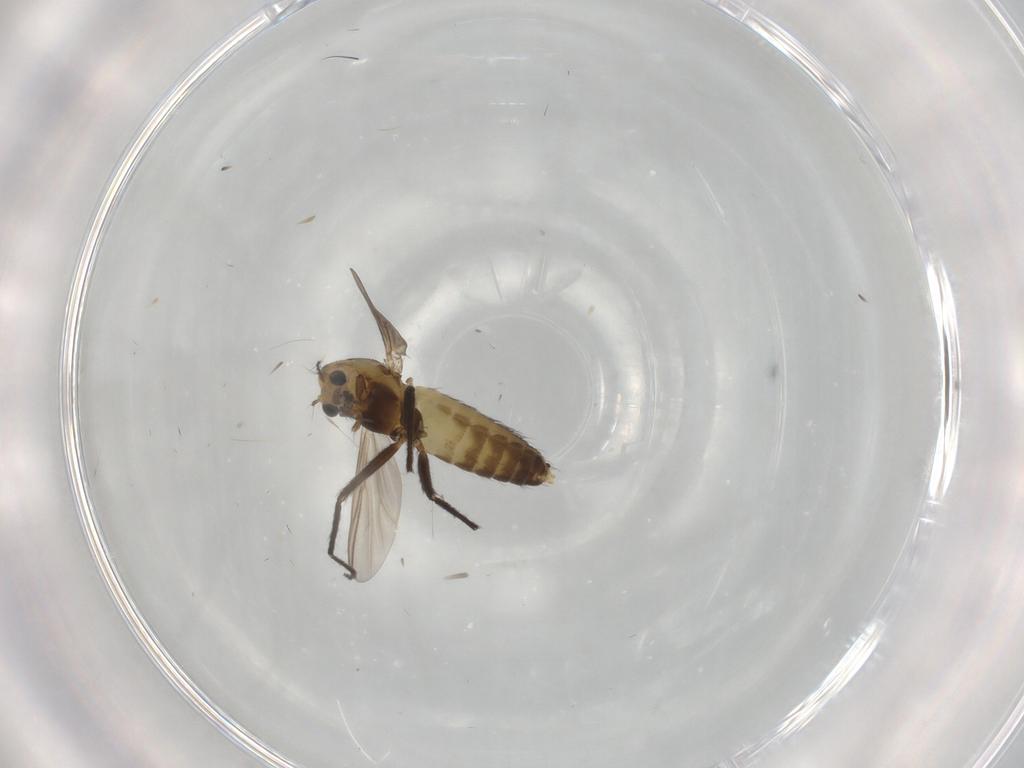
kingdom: Animalia
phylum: Arthropoda
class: Insecta
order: Diptera
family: Chironomidae
